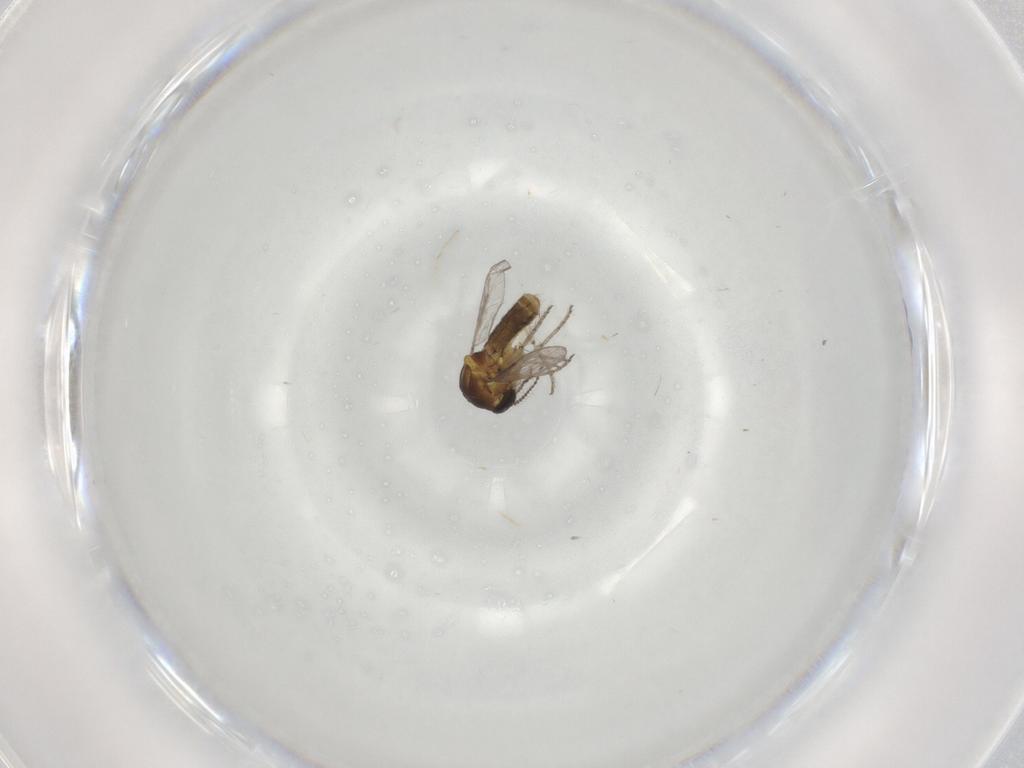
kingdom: Animalia
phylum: Arthropoda
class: Insecta
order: Diptera
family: Ceratopogonidae
